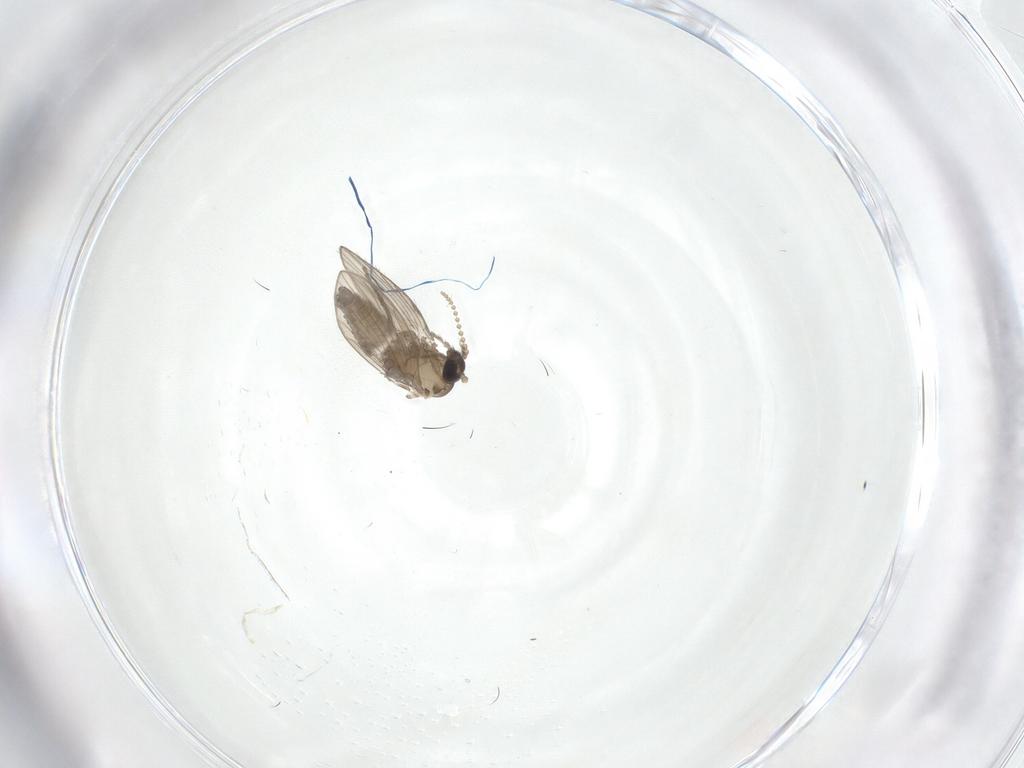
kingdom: Animalia
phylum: Arthropoda
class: Insecta
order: Diptera
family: Psychodidae
